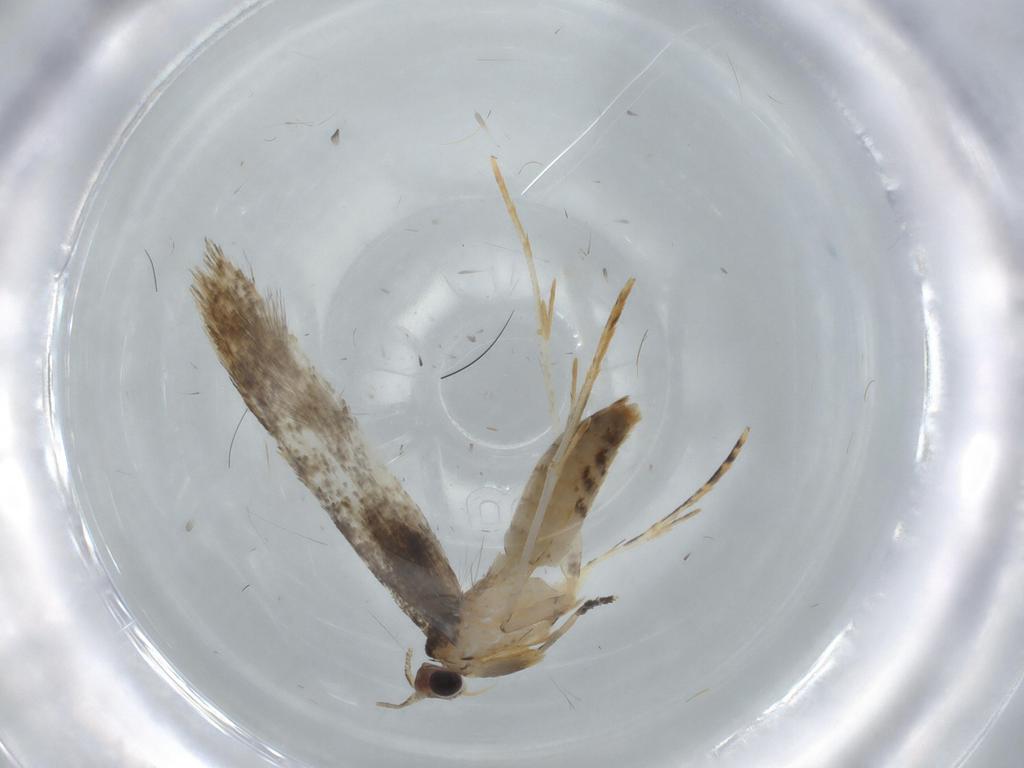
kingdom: Animalia
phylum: Arthropoda
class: Insecta
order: Lepidoptera
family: Tineidae
